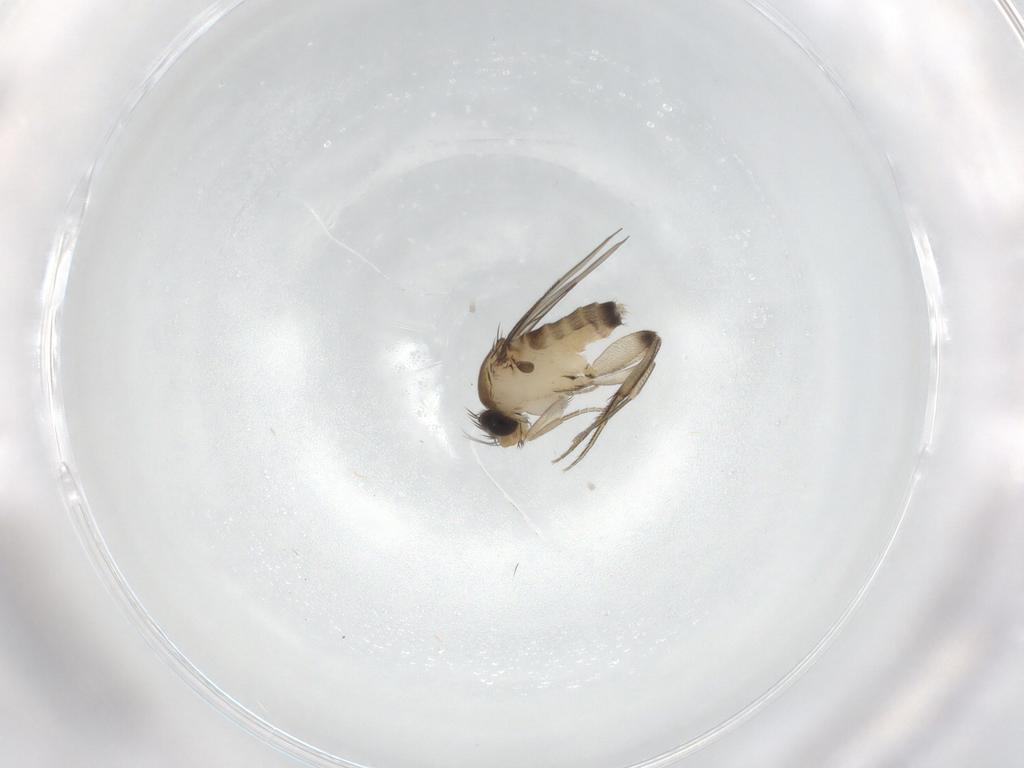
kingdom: Animalia
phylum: Arthropoda
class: Insecta
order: Diptera
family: Phoridae
